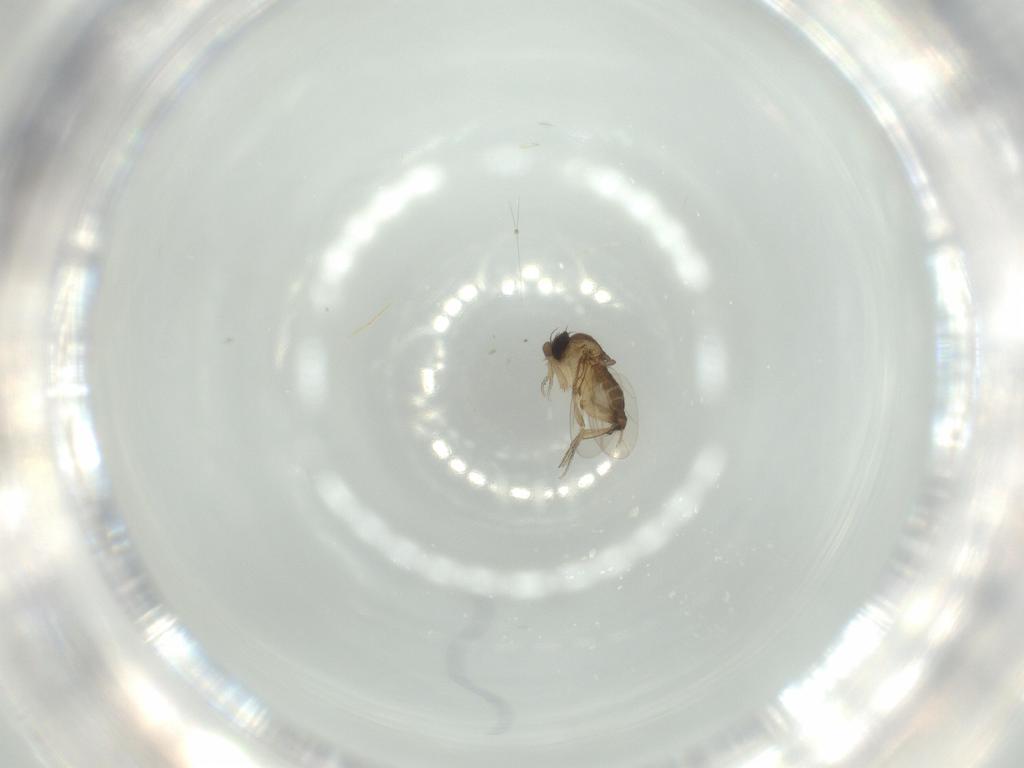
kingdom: Animalia
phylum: Arthropoda
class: Insecta
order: Diptera
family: Phoridae
